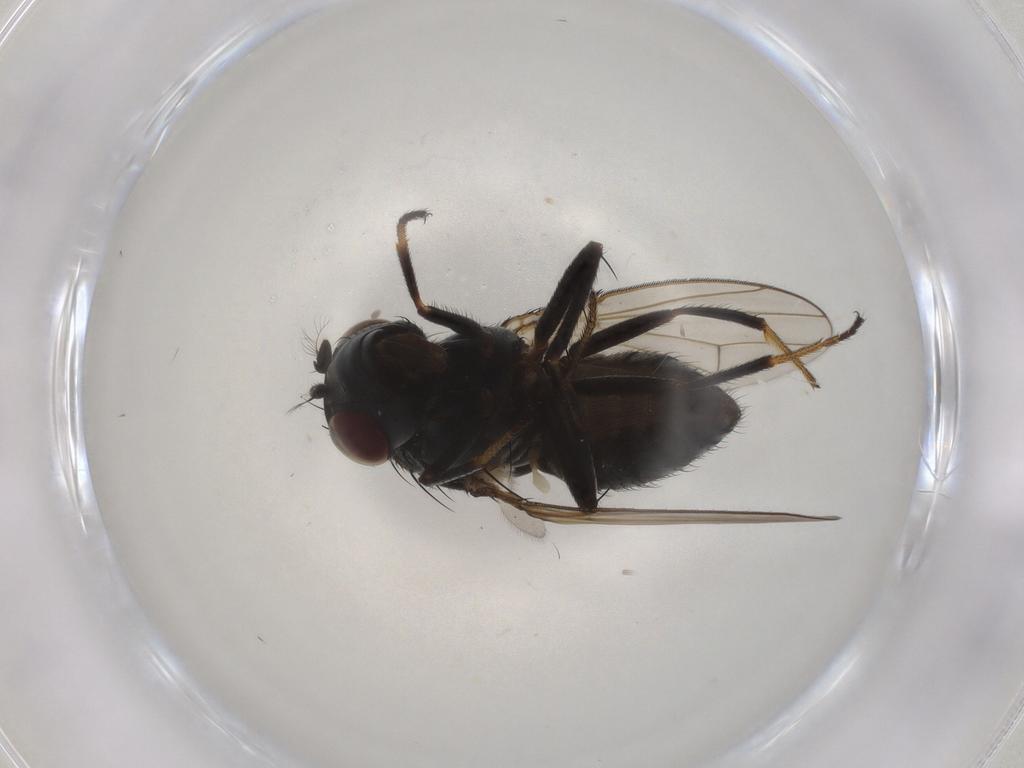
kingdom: Animalia
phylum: Arthropoda
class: Insecta
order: Diptera
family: Ephydridae
